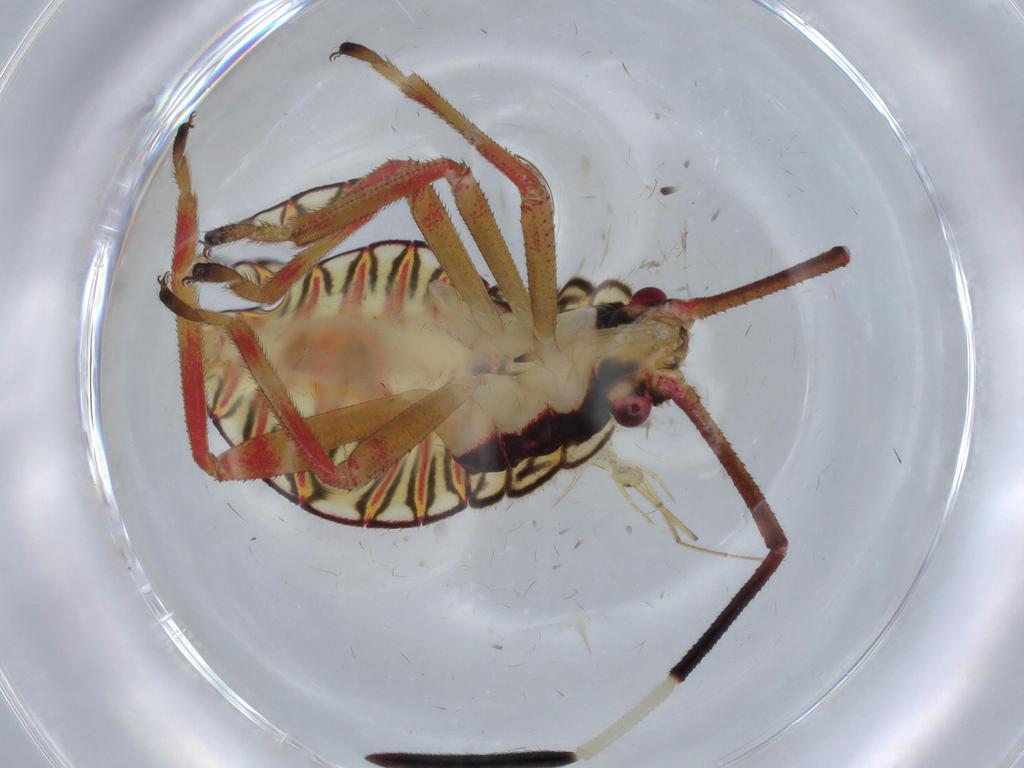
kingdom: Animalia
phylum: Arthropoda
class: Insecta
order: Hemiptera
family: Coreidae
